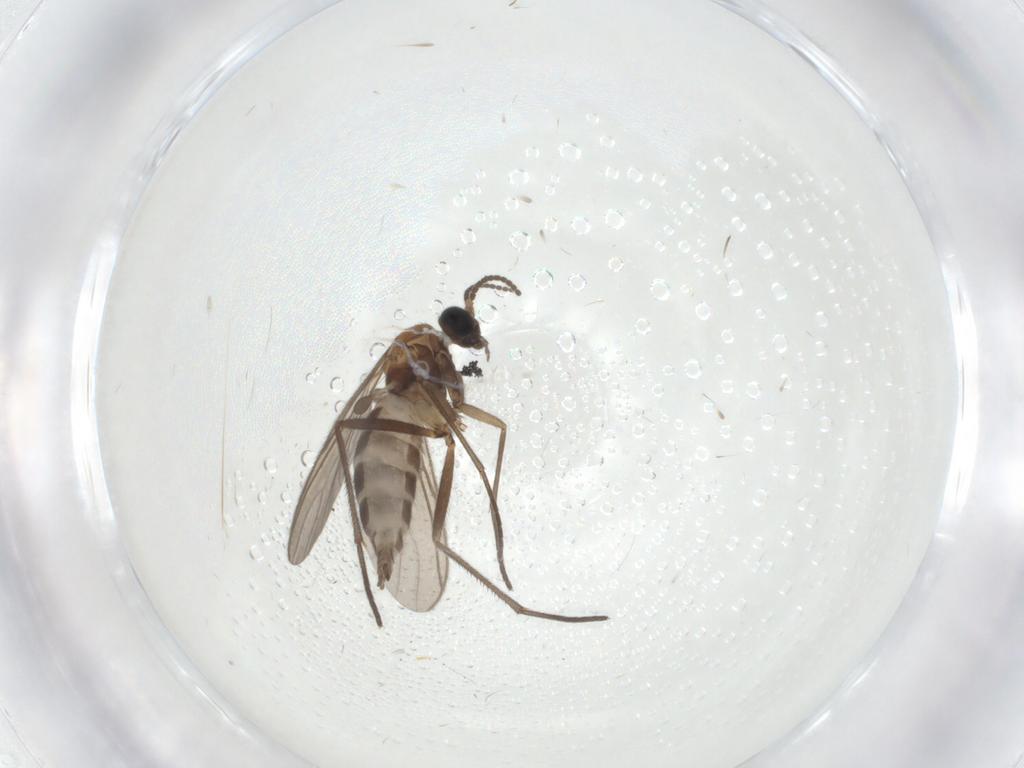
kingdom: Animalia
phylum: Arthropoda
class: Insecta
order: Diptera
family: Sciaridae
